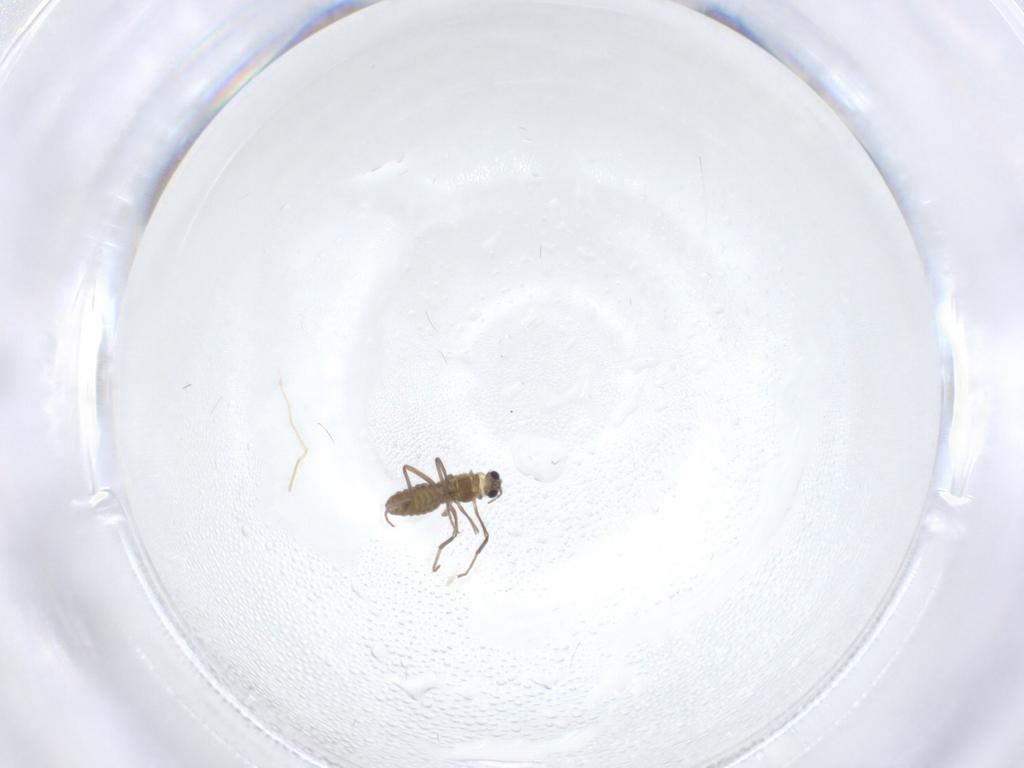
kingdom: Animalia
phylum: Arthropoda
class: Insecta
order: Diptera
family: Chironomidae
